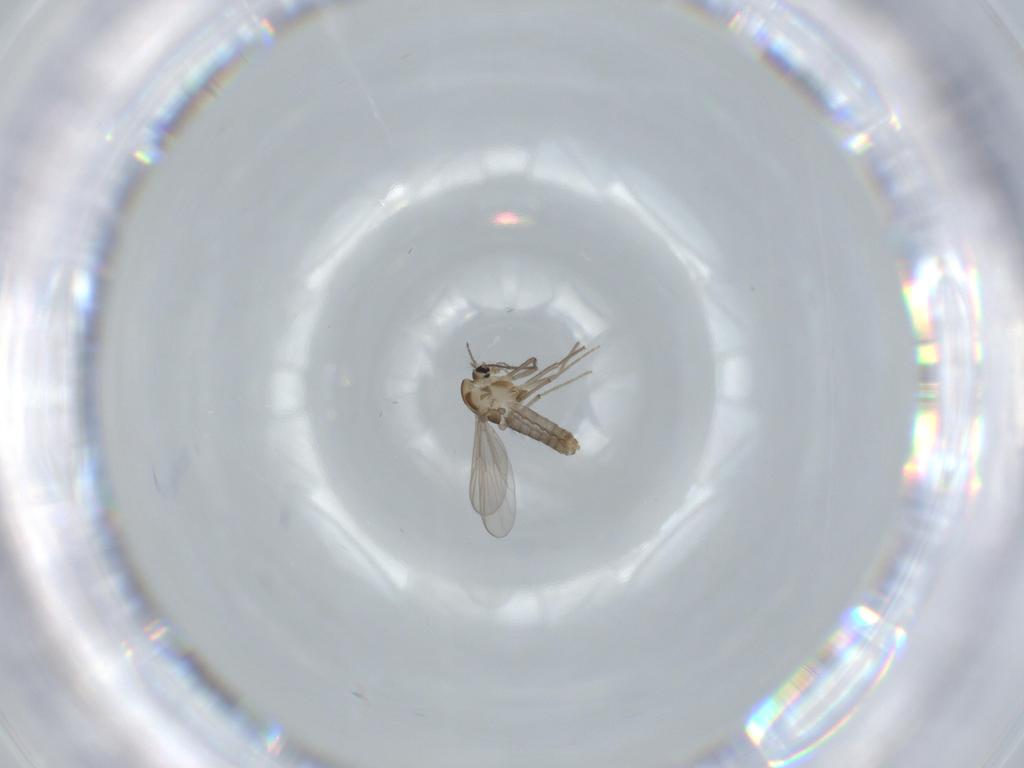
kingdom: Animalia
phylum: Arthropoda
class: Insecta
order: Diptera
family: Chironomidae
